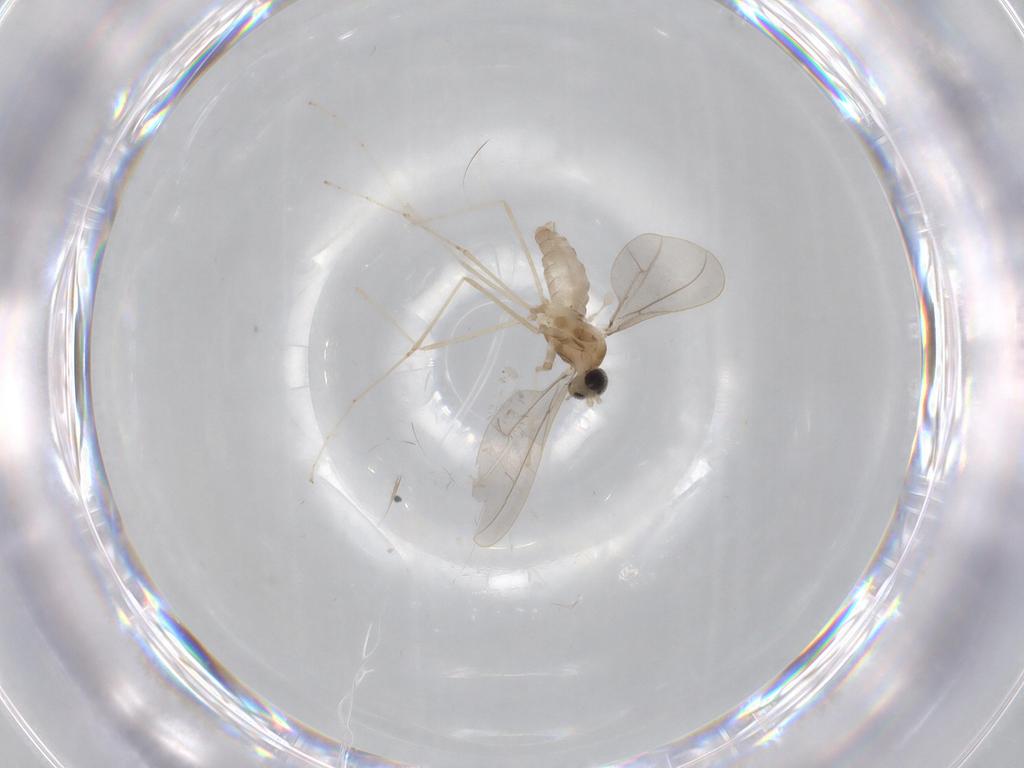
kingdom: Animalia
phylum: Arthropoda
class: Insecta
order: Diptera
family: Cecidomyiidae
